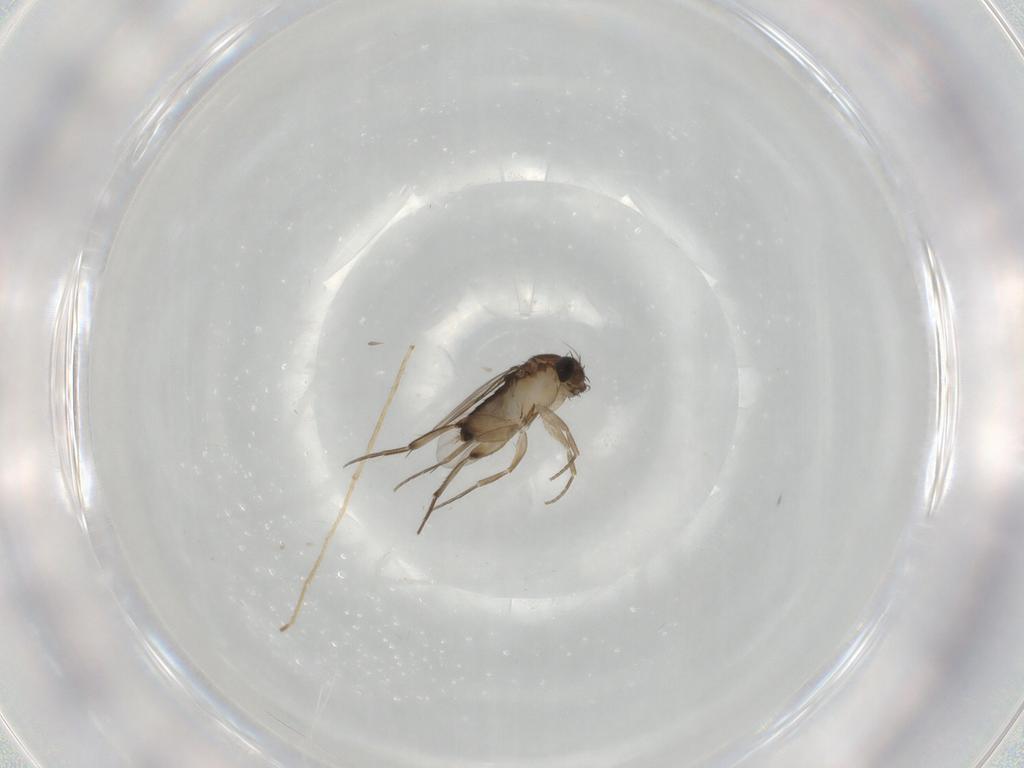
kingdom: Animalia
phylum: Arthropoda
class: Insecta
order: Diptera
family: Phoridae
